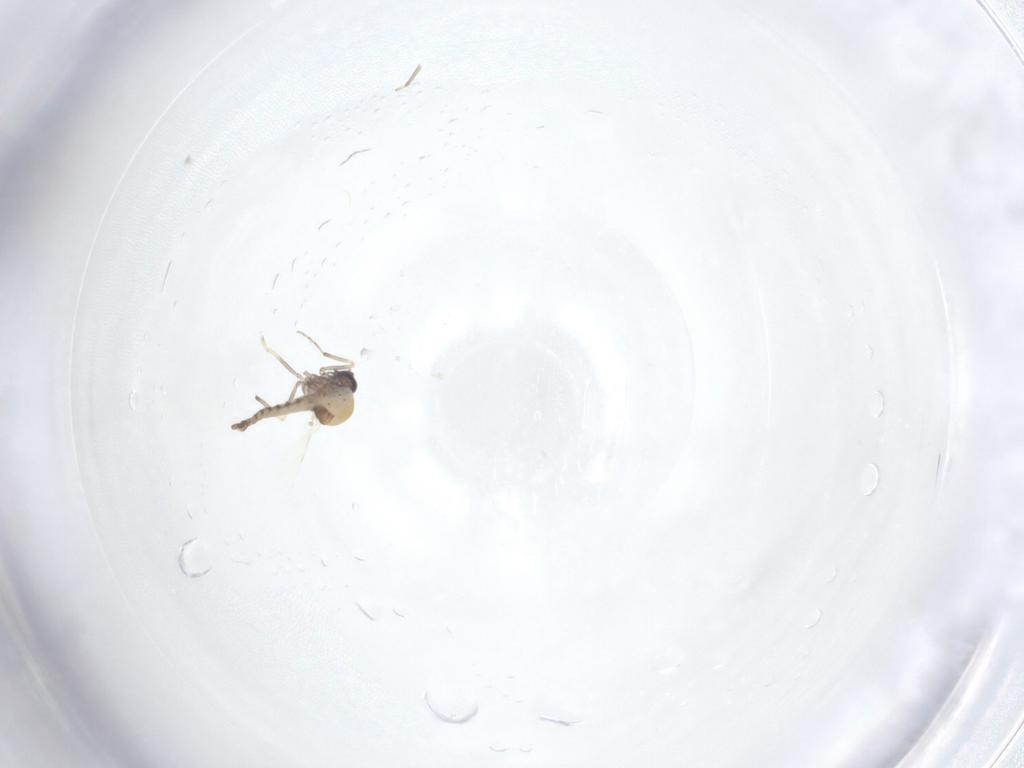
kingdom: Animalia
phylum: Arthropoda
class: Insecta
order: Diptera
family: Ceratopogonidae
